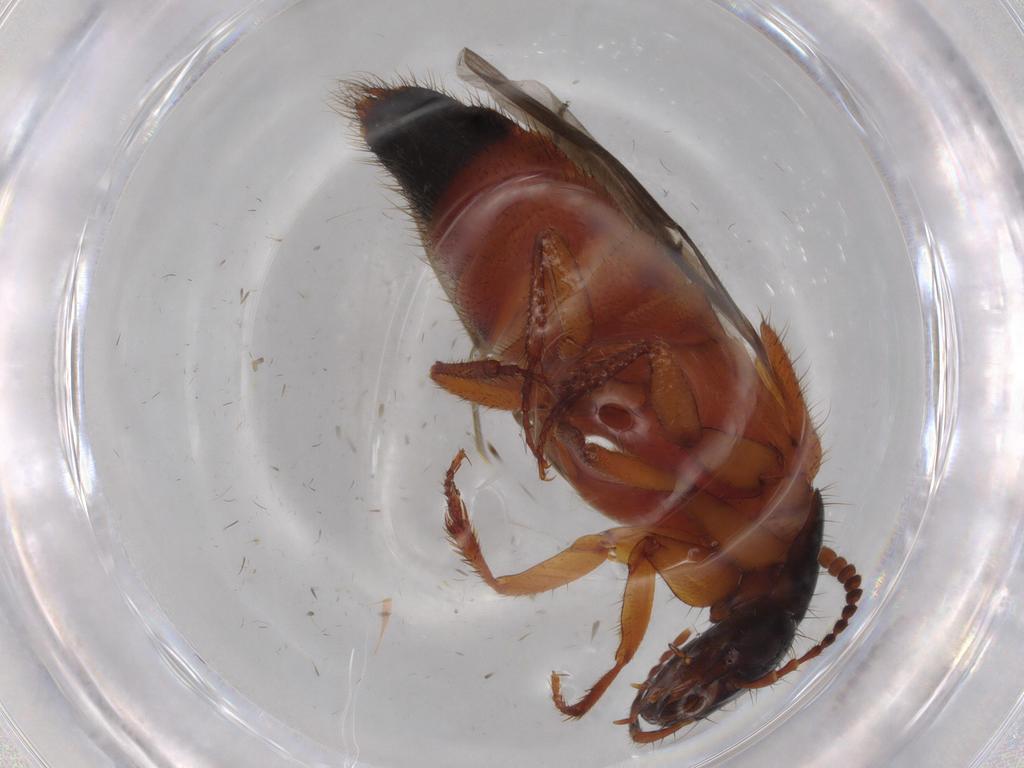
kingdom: Animalia
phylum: Arthropoda
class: Insecta
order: Coleoptera
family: Staphylinidae
